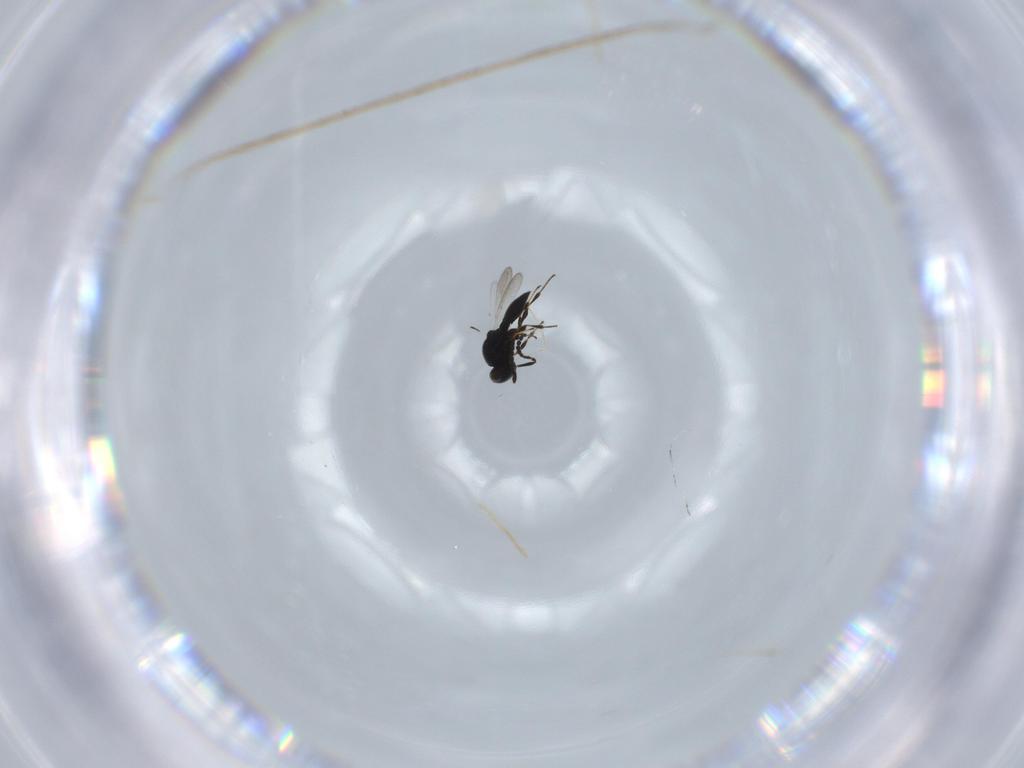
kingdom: Animalia
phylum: Arthropoda
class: Insecta
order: Hymenoptera
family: Platygastridae
